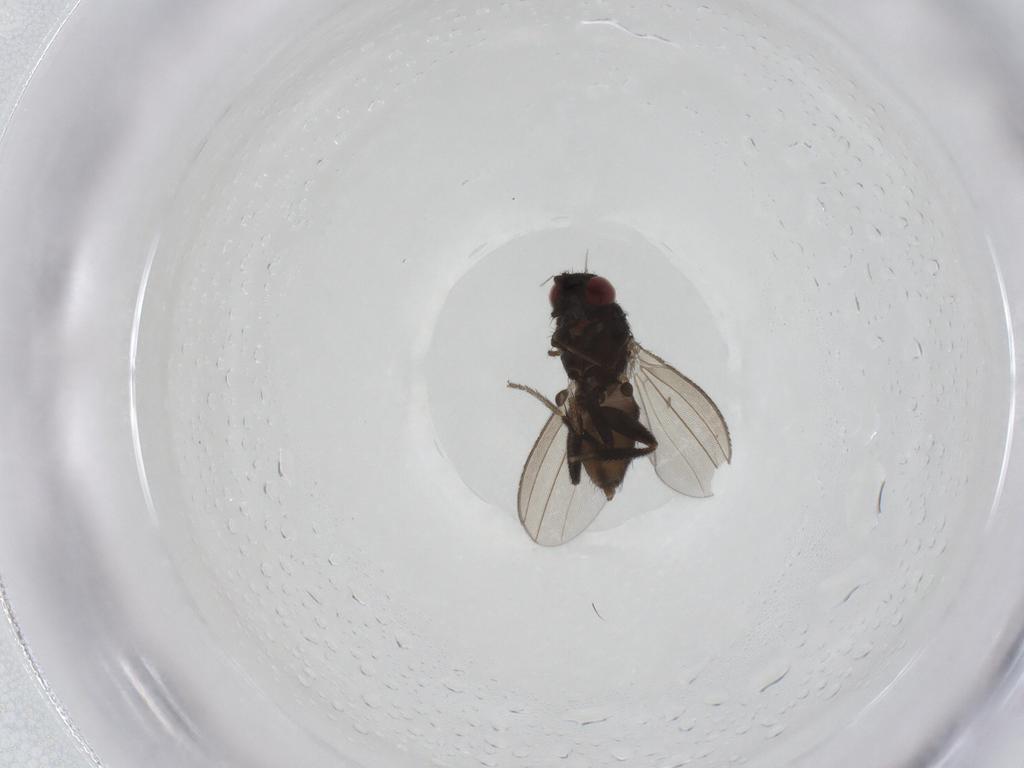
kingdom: Animalia
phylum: Arthropoda
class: Insecta
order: Diptera
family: Milichiidae
